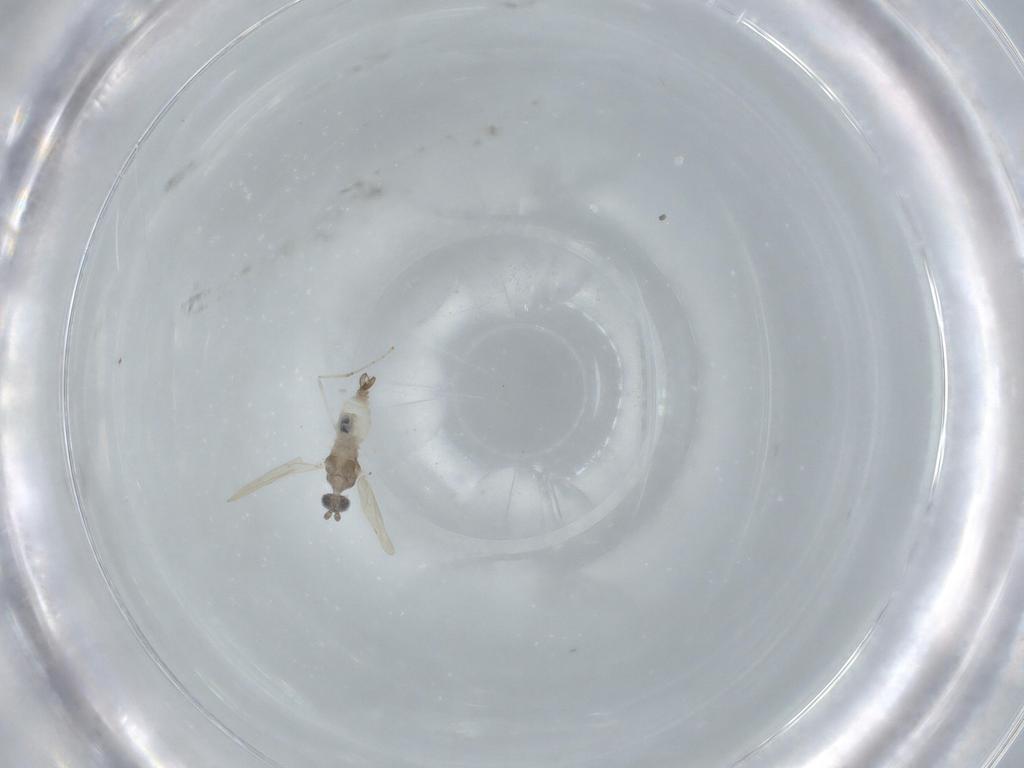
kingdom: Animalia
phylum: Arthropoda
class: Insecta
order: Diptera
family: Cecidomyiidae
